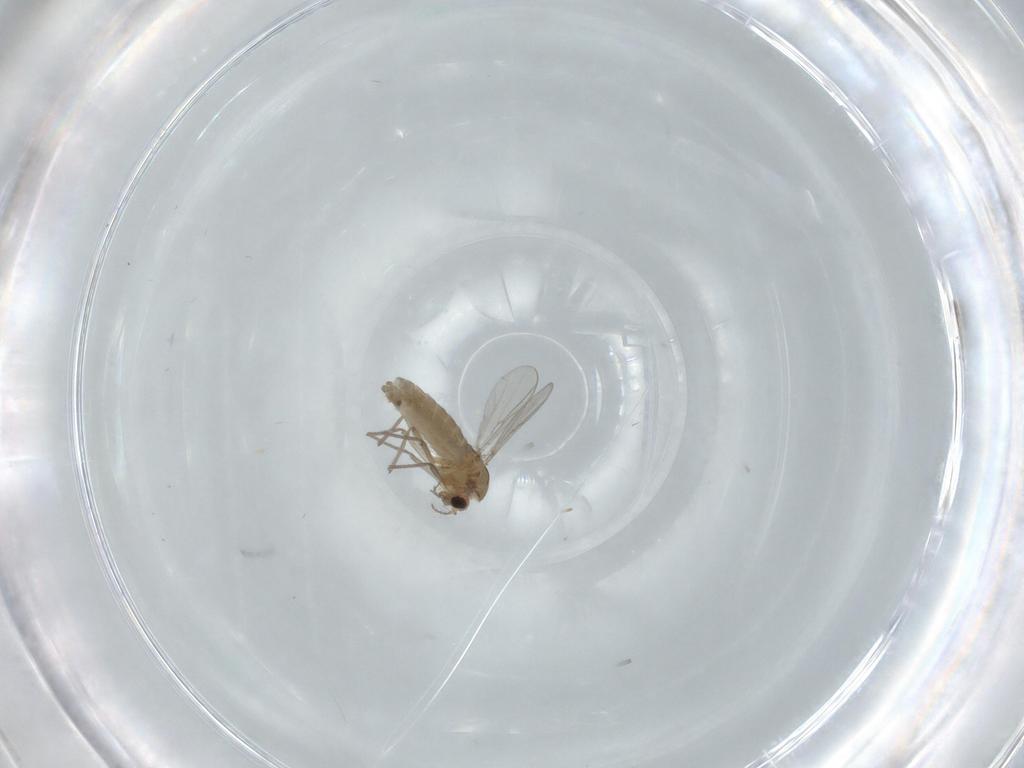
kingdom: Animalia
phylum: Arthropoda
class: Insecta
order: Diptera
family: Chironomidae
